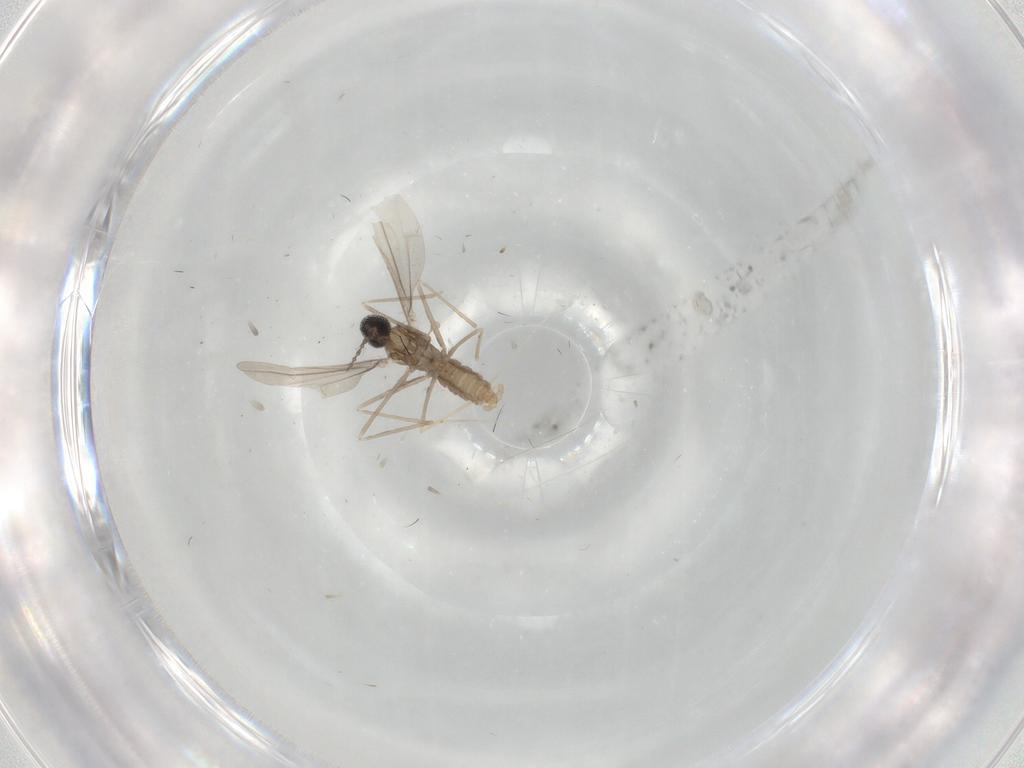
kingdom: Animalia
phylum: Arthropoda
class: Insecta
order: Diptera
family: Cecidomyiidae
